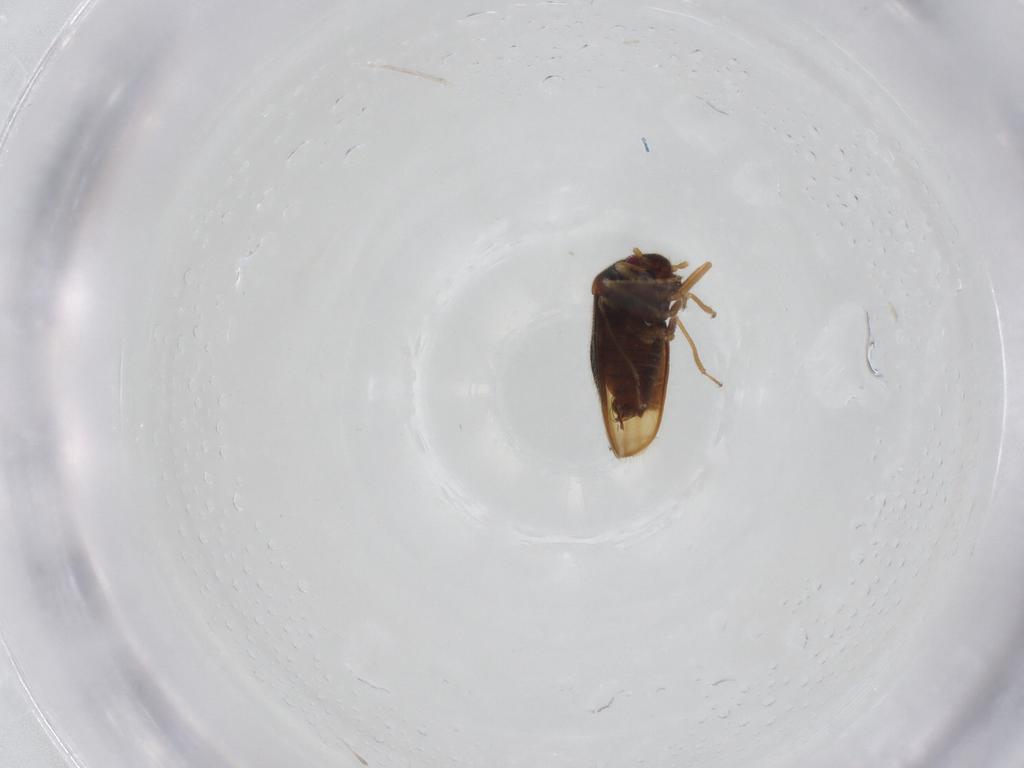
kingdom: Animalia
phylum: Arthropoda
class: Insecta
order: Hemiptera
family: Schizopteridae
